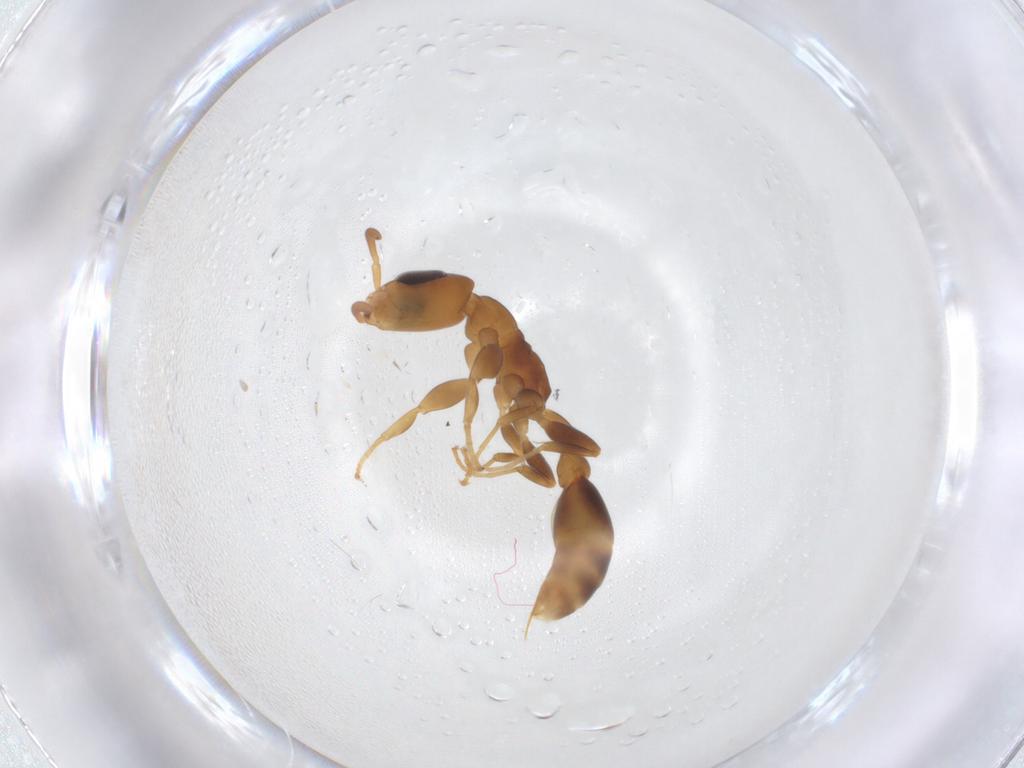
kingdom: Animalia
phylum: Arthropoda
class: Insecta
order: Hymenoptera
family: Formicidae
